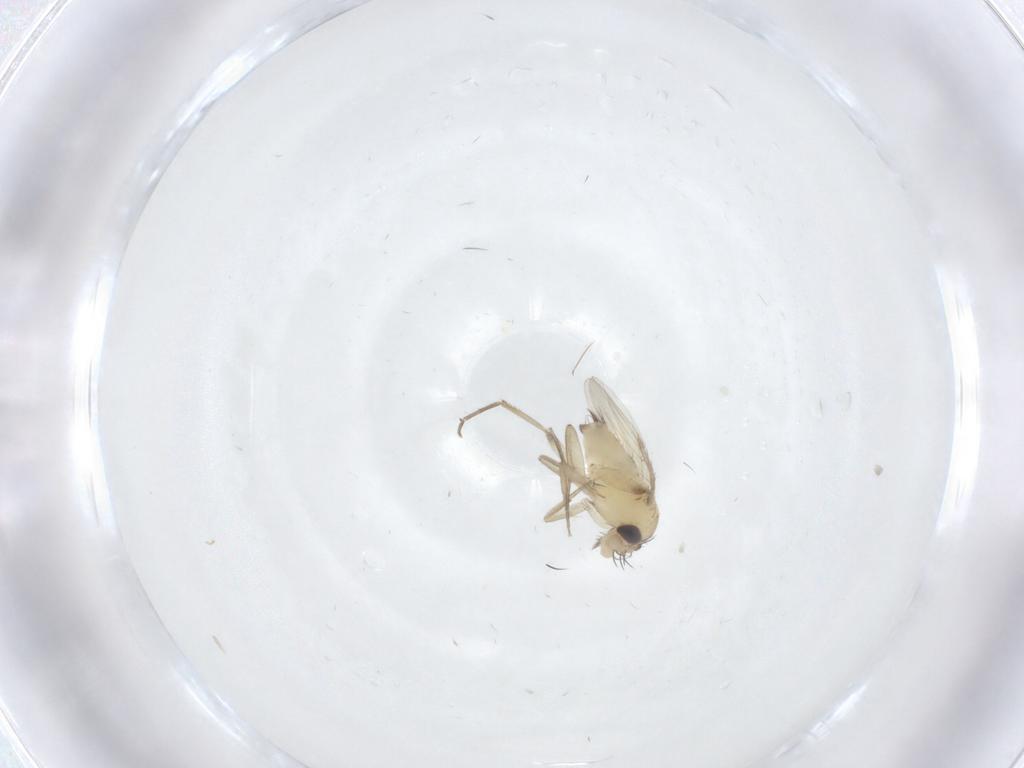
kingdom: Animalia
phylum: Arthropoda
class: Insecta
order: Diptera
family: Phoridae
